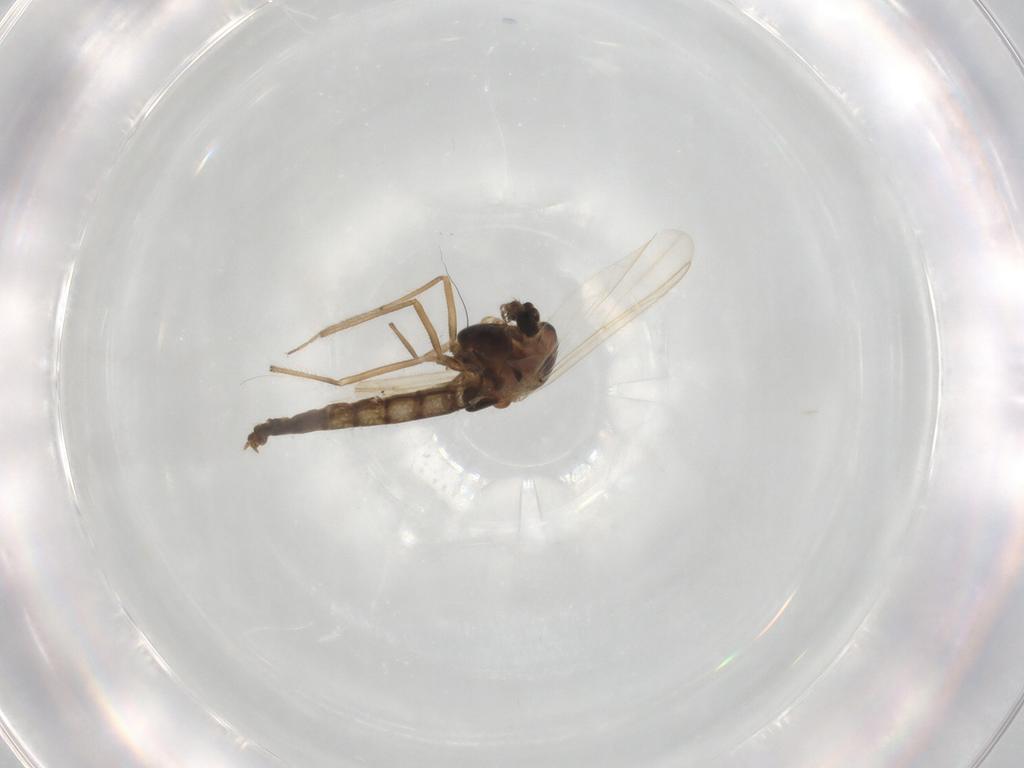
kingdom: Animalia
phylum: Arthropoda
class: Insecta
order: Diptera
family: Chironomidae
